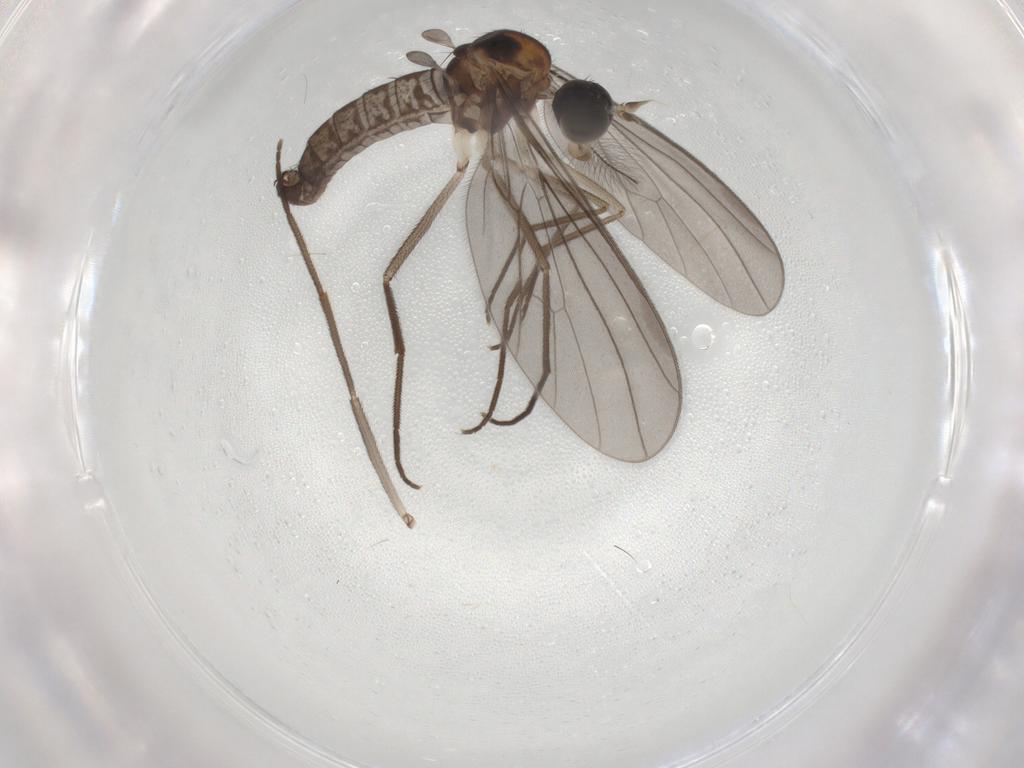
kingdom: Animalia
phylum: Arthropoda
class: Insecta
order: Diptera
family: Chironomidae
